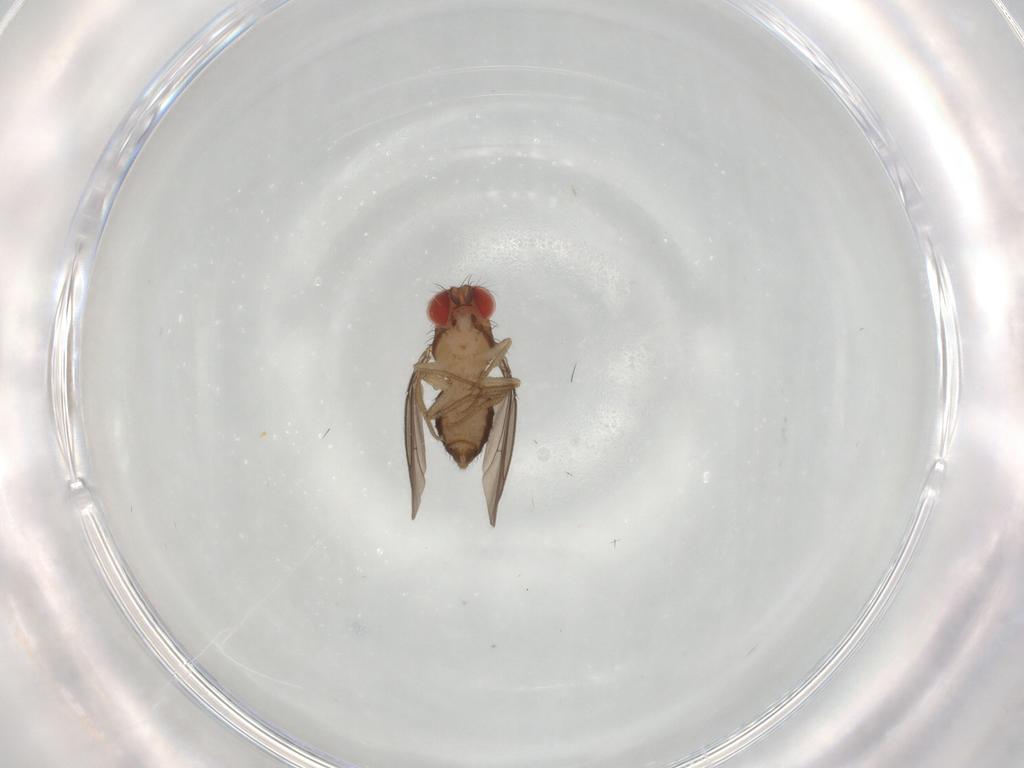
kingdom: Animalia
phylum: Arthropoda
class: Insecta
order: Diptera
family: Drosophilidae
